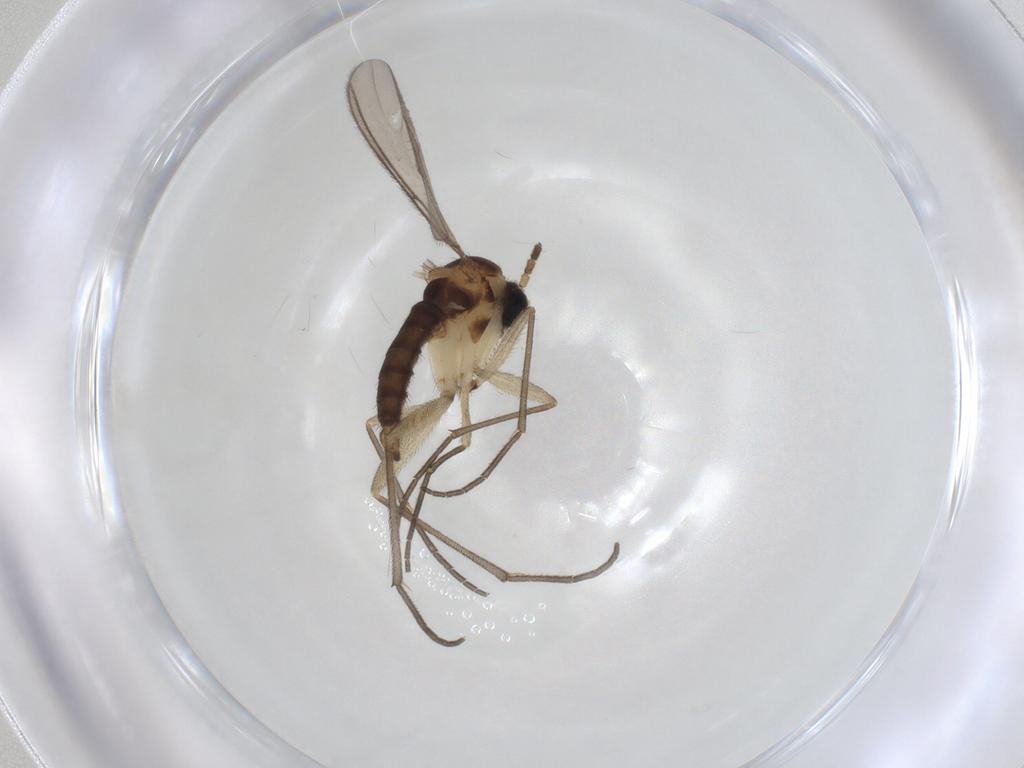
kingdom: Animalia
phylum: Arthropoda
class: Insecta
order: Diptera
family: Sciaridae
